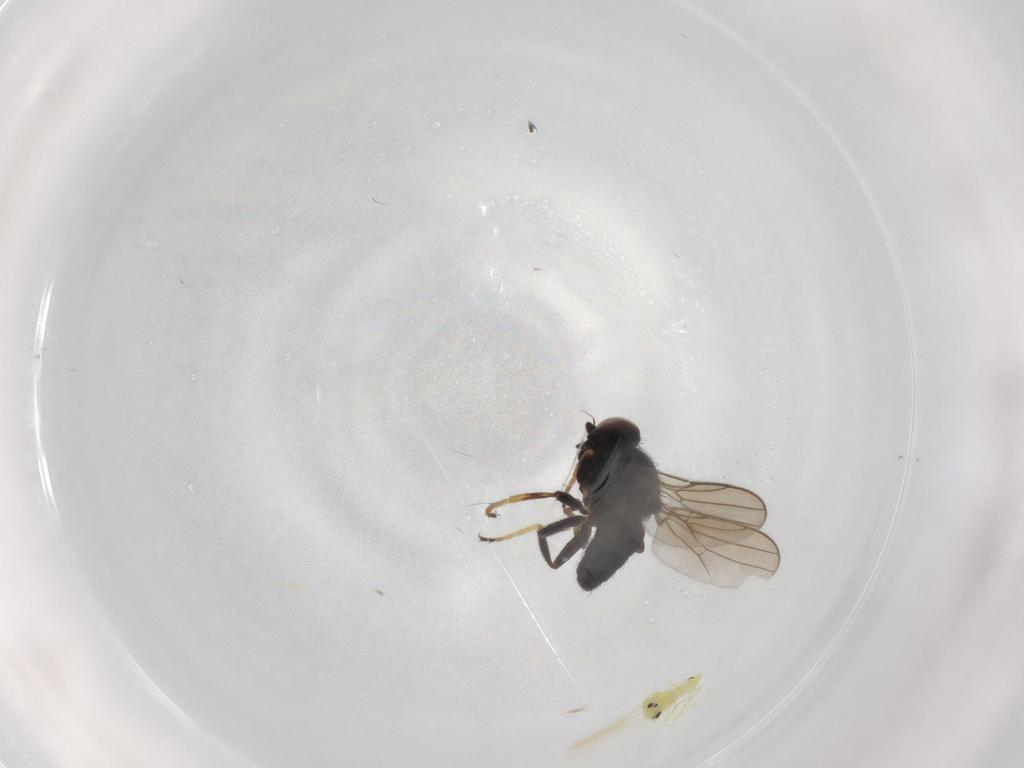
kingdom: Animalia
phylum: Arthropoda
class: Insecta
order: Diptera
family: Chloropidae
